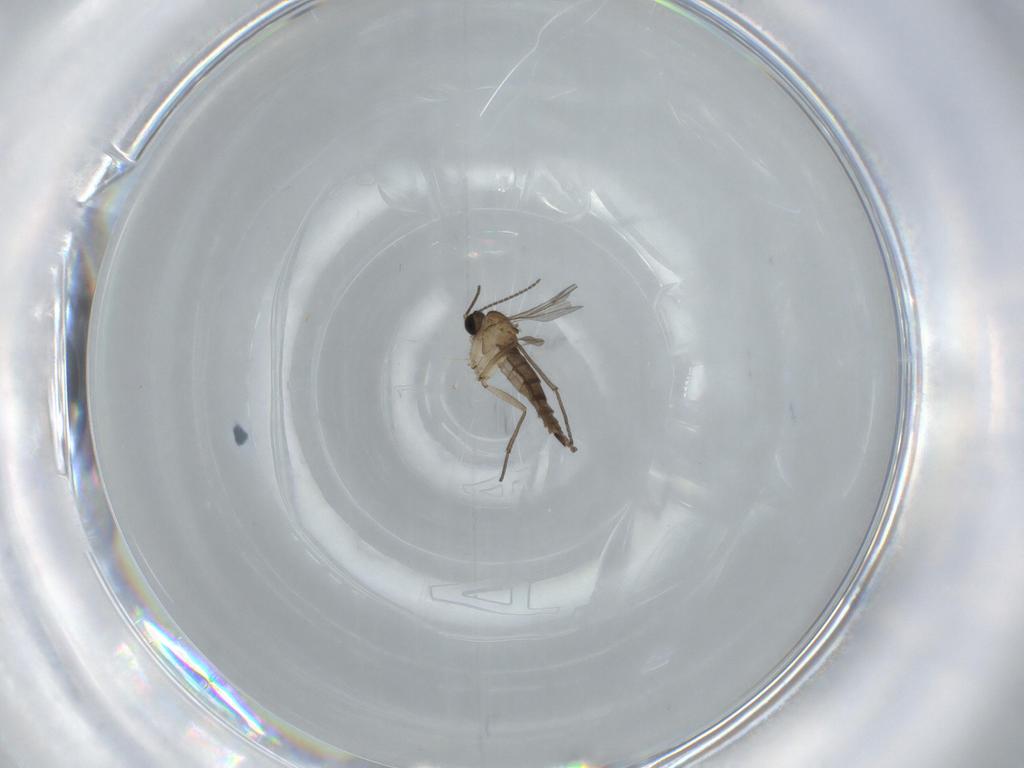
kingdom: Animalia
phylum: Arthropoda
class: Insecta
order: Diptera
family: Sciaridae
